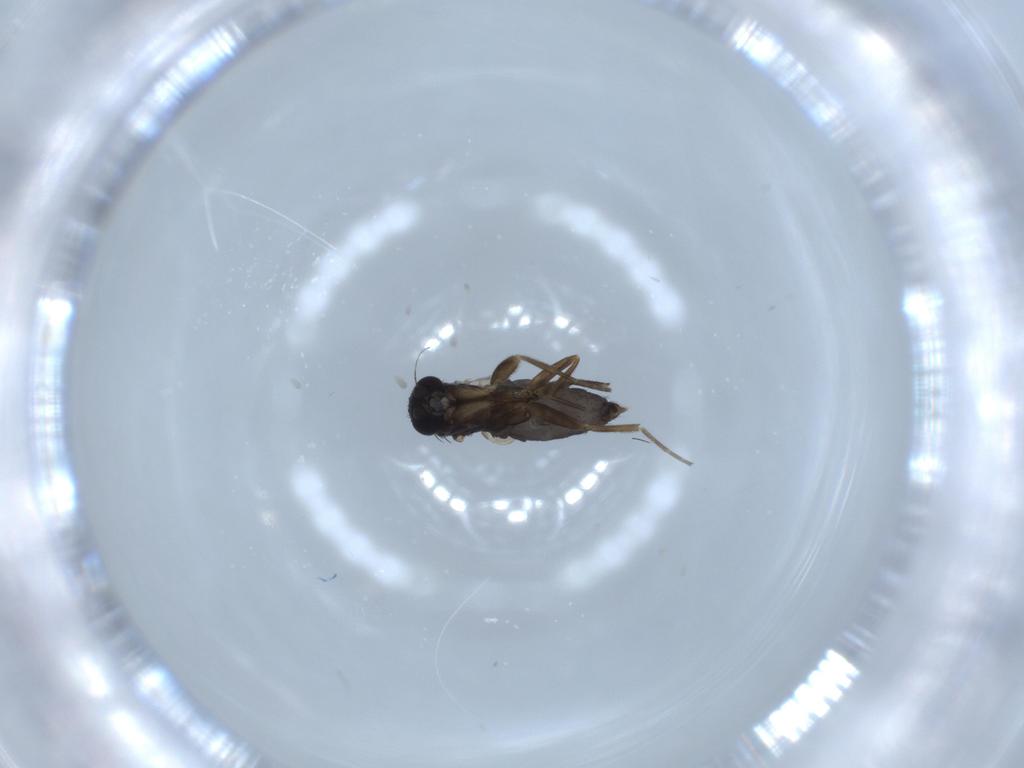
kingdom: Animalia
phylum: Arthropoda
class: Insecta
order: Diptera
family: Phoridae
